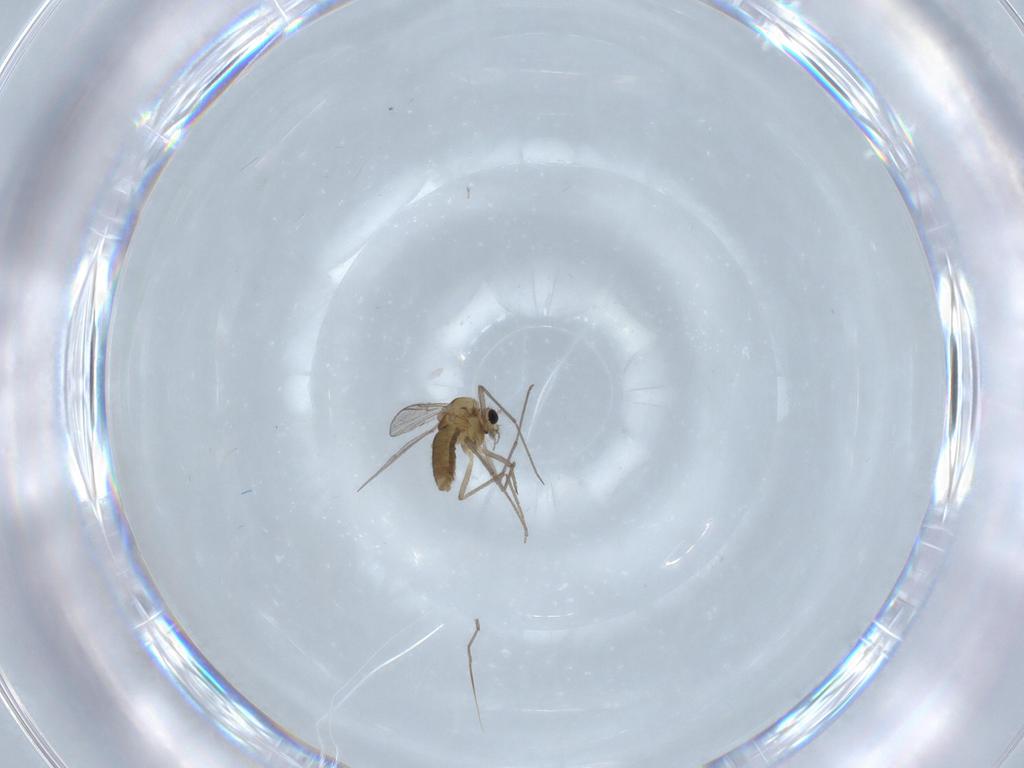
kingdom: Animalia
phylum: Arthropoda
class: Insecta
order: Diptera
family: Chironomidae
